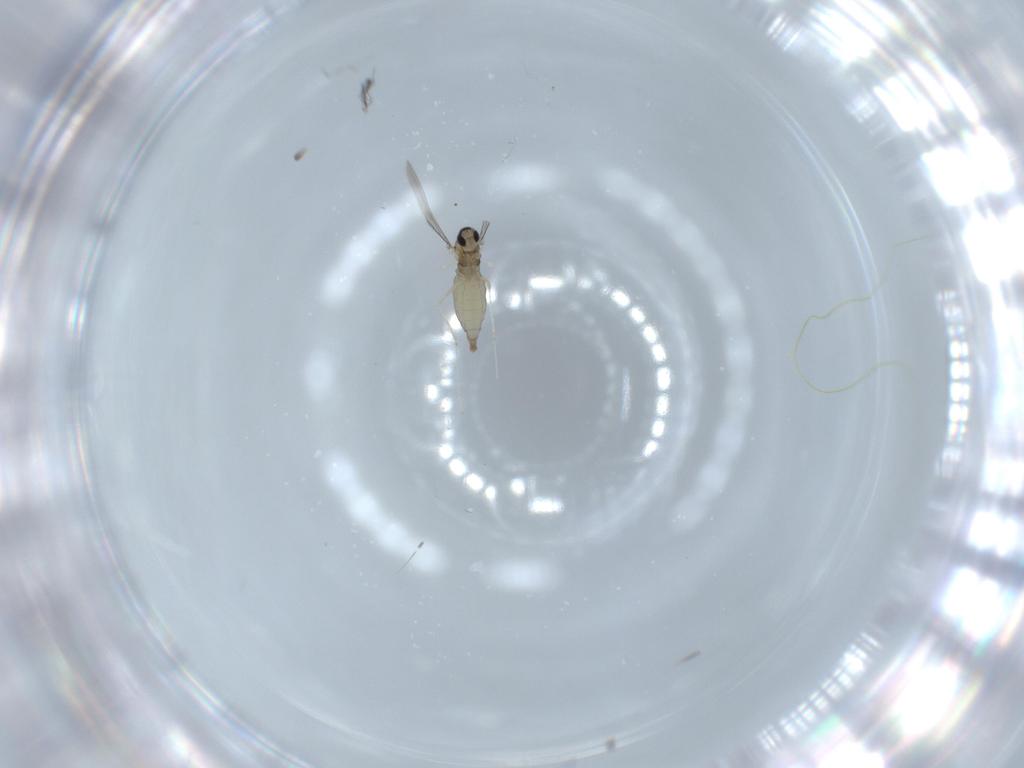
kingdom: Animalia
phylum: Arthropoda
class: Insecta
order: Diptera
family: Cecidomyiidae
